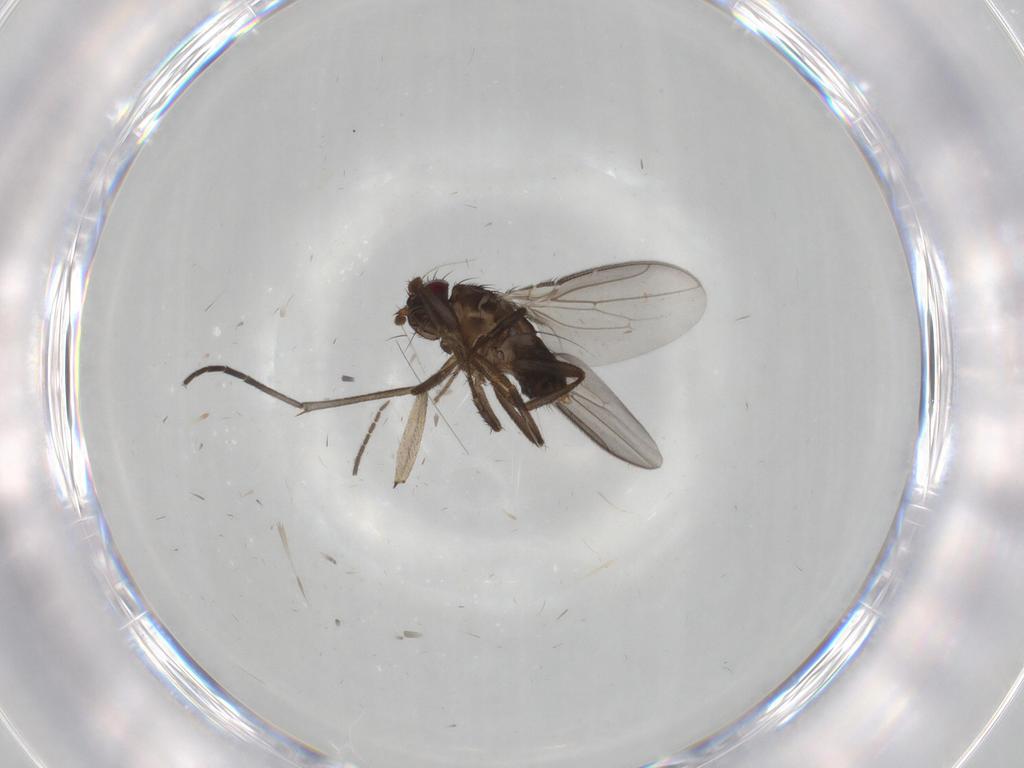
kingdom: Animalia
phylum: Arthropoda
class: Insecta
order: Diptera
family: Sphaeroceridae
